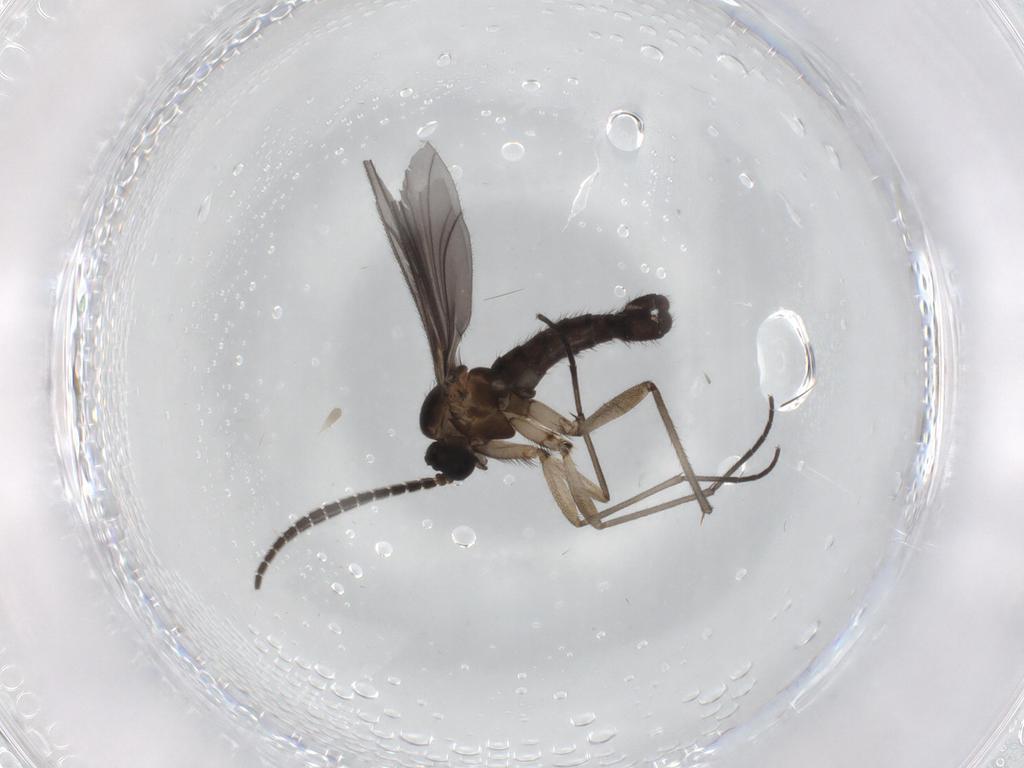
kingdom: Animalia
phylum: Arthropoda
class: Insecta
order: Diptera
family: Sciaridae
